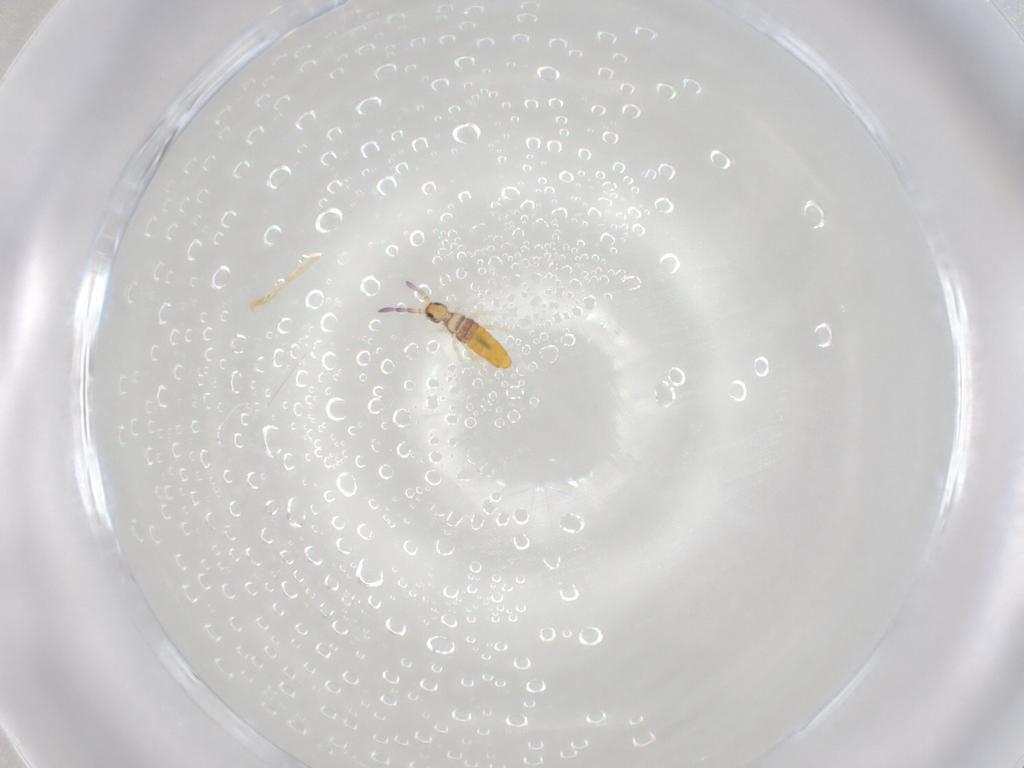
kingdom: Animalia
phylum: Arthropoda
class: Collembola
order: Entomobryomorpha
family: Entomobryidae
